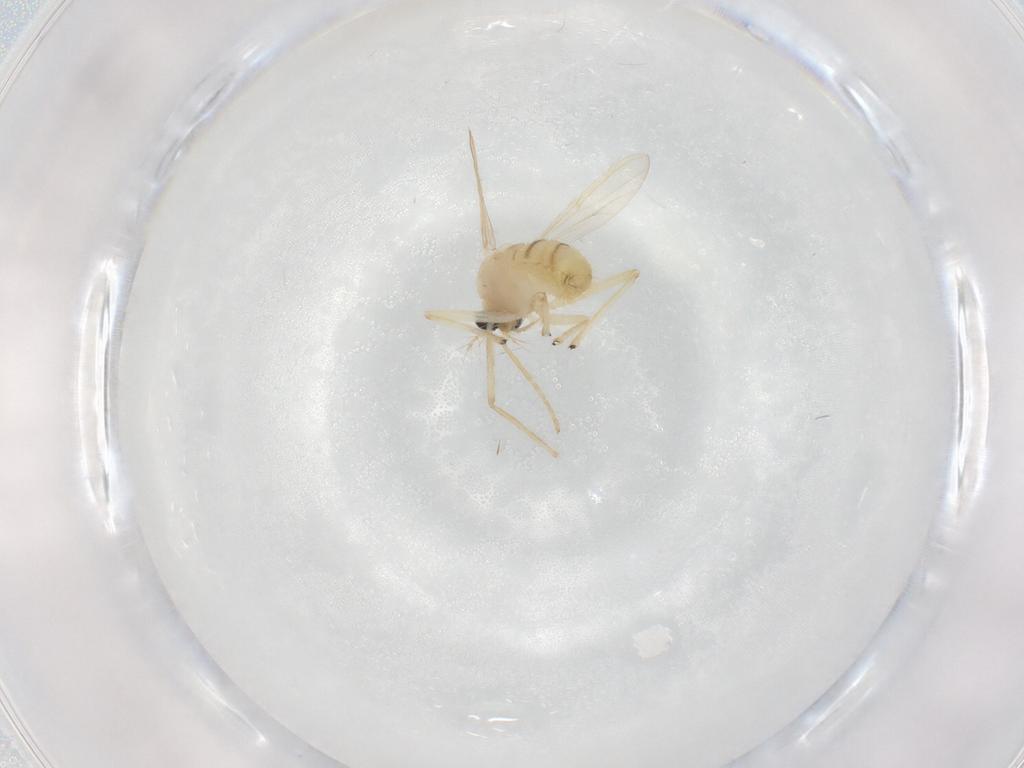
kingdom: Animalia
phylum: Arthropoda
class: Insecta
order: Diptera
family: Chironomidae
